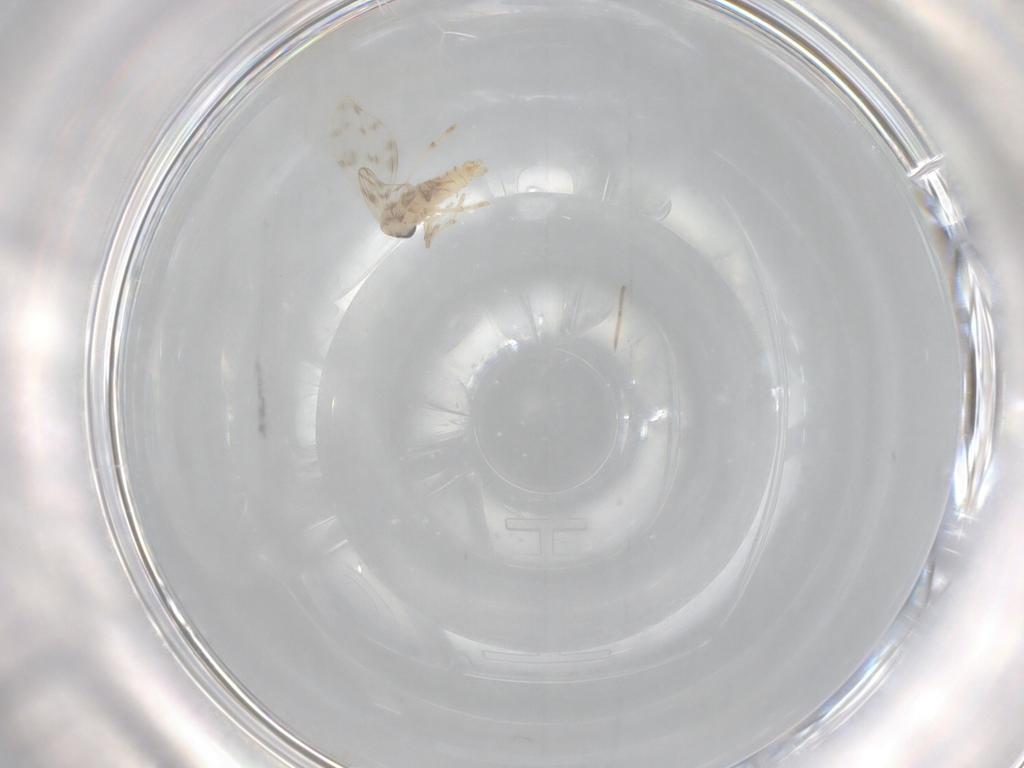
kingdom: Animalia
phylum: Arthropoda
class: Insecta
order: Diptera
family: Psychodidae
